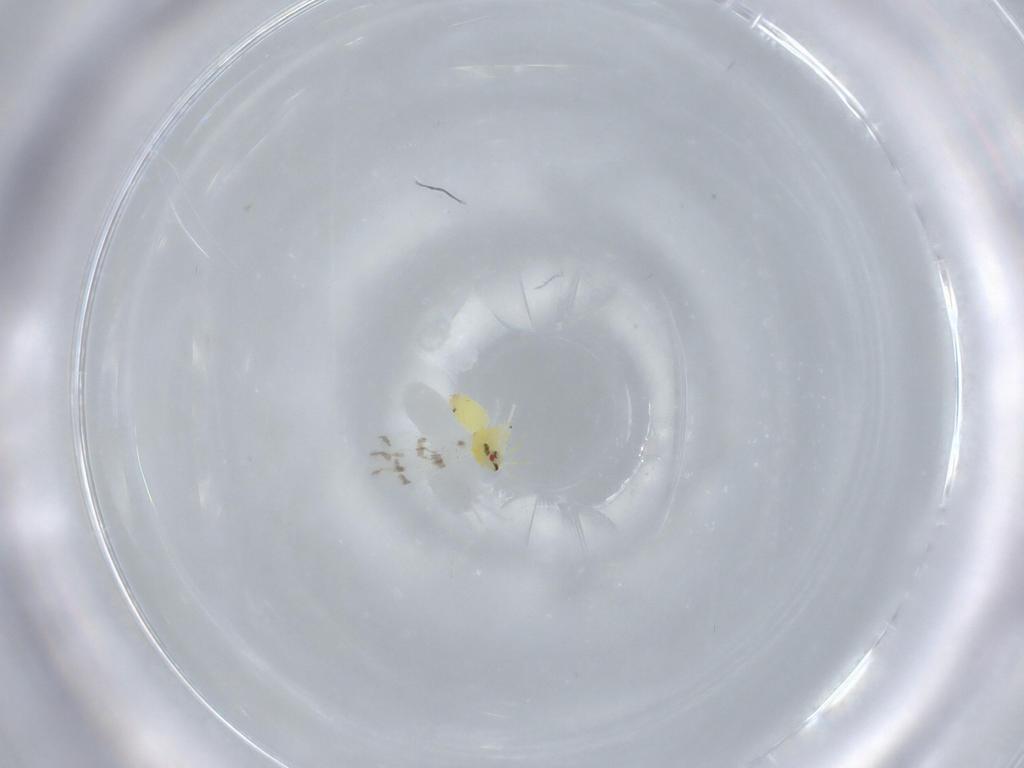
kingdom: Animalia
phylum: Arthropoda
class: Insecta
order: Hemiptera
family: Aleyrodidae
